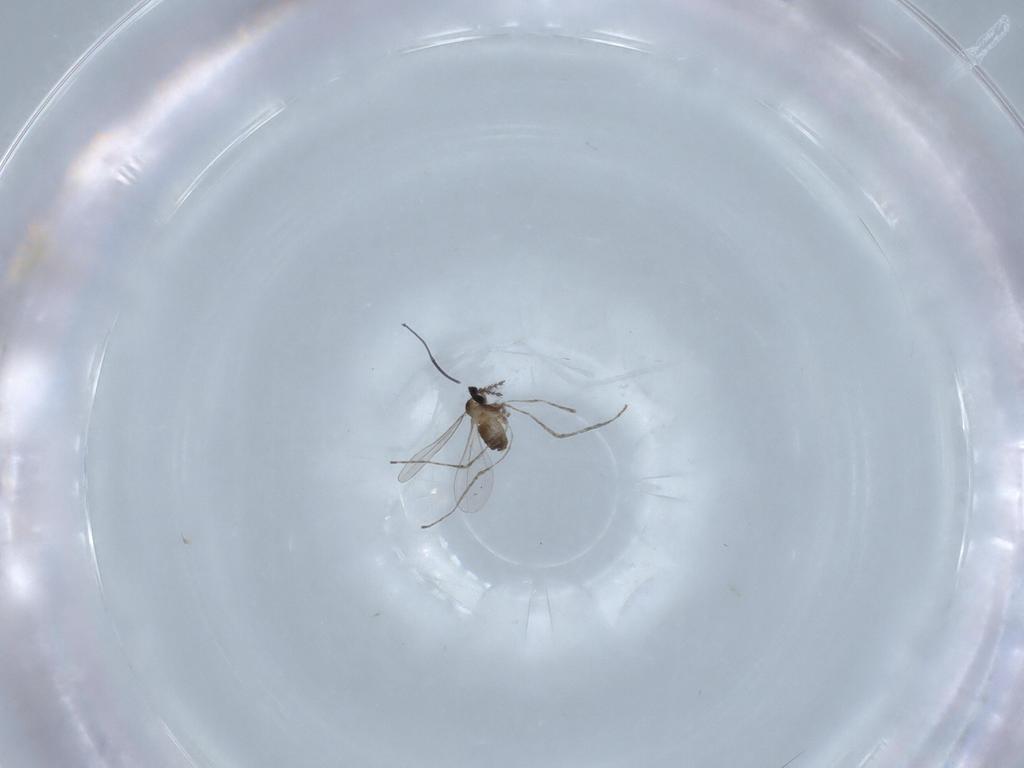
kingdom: Animalia
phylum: Arthropoda
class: Insecta
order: Diptera
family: Cecidomyiidae
